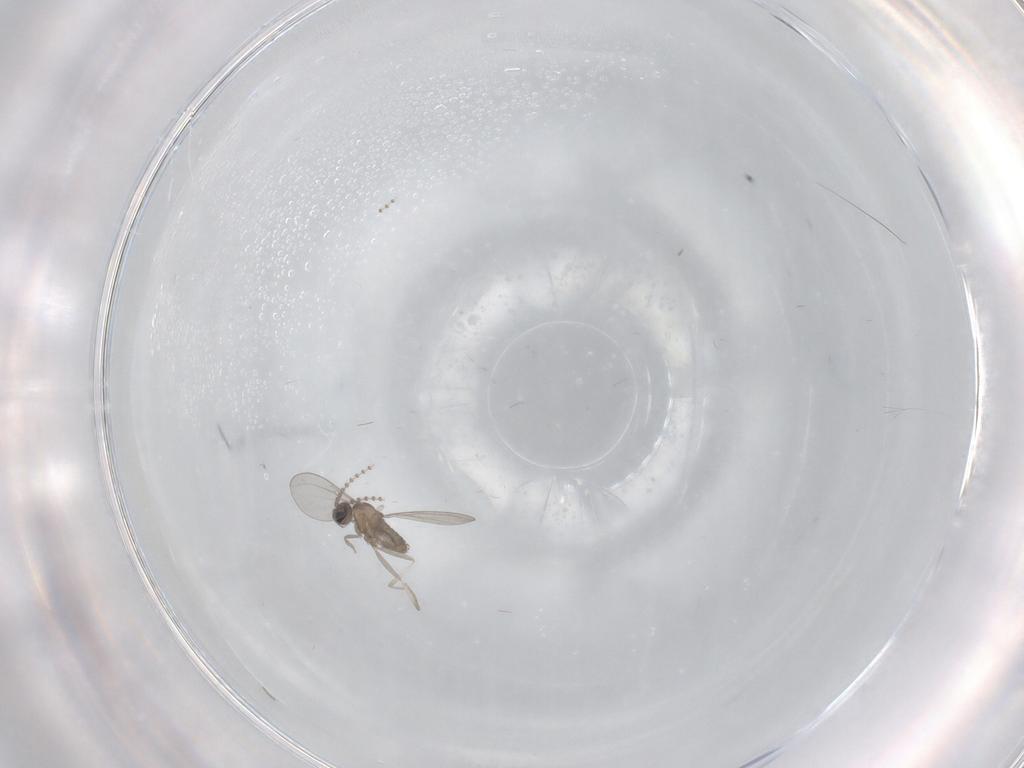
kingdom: Animalia
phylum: Arthropoda
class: Insecta
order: Diptera
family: Cecidomyiidae
